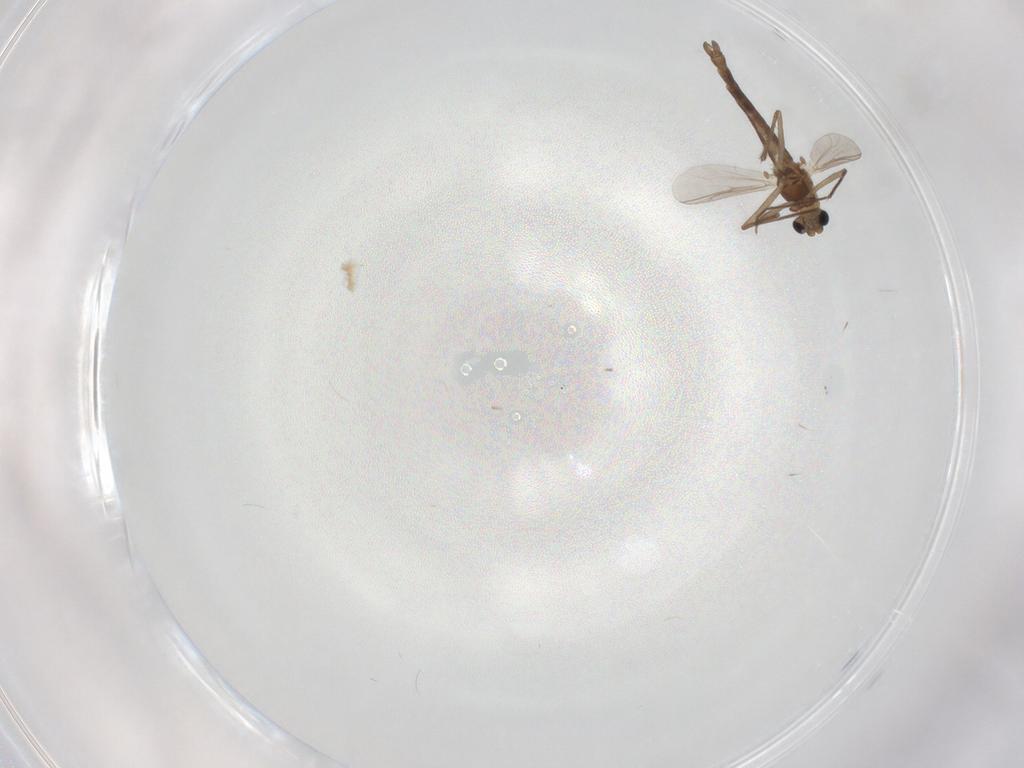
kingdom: Animalia
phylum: Arthropoda
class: Insecta
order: Diptera
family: Chironomidae
